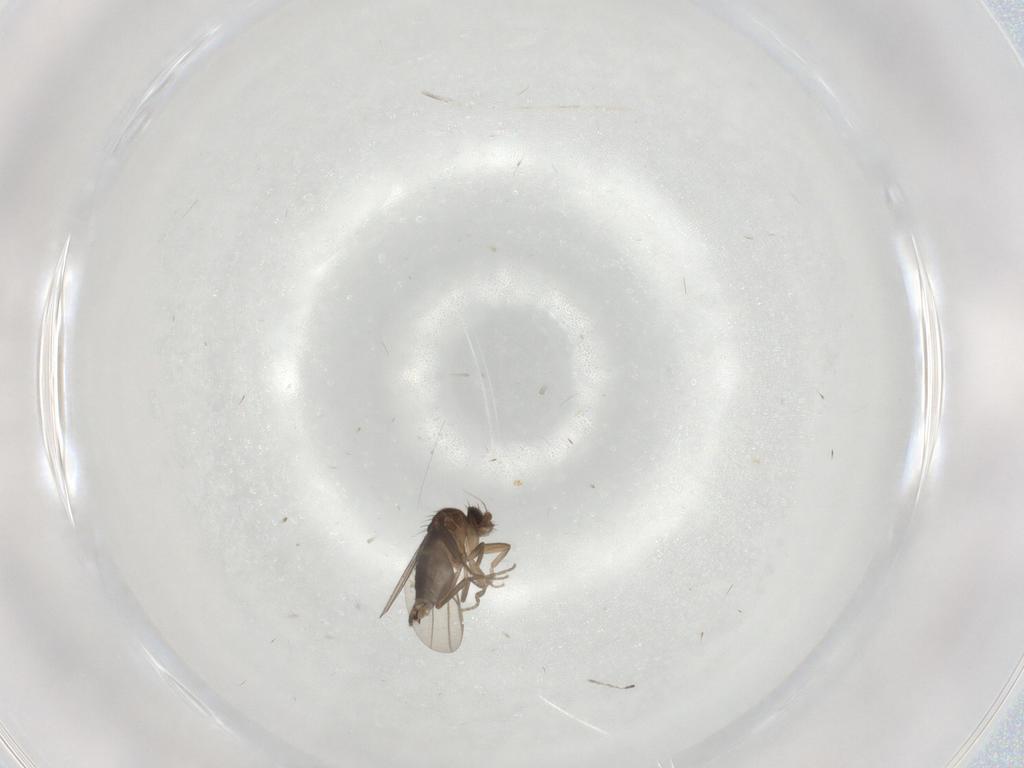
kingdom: Animalia
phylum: Arthropoda
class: Insecta
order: Diptera
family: Phoridae
